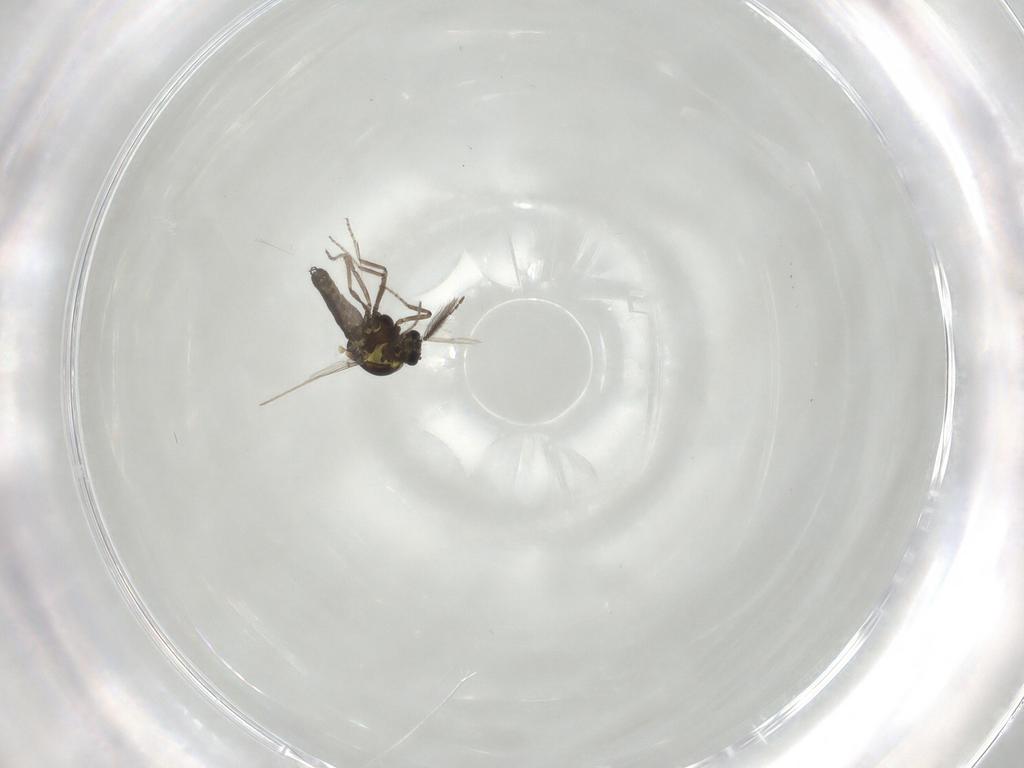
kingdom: Animalia
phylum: Arthropoda
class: Insecta
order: Diptera
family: Ceratopogonidae
